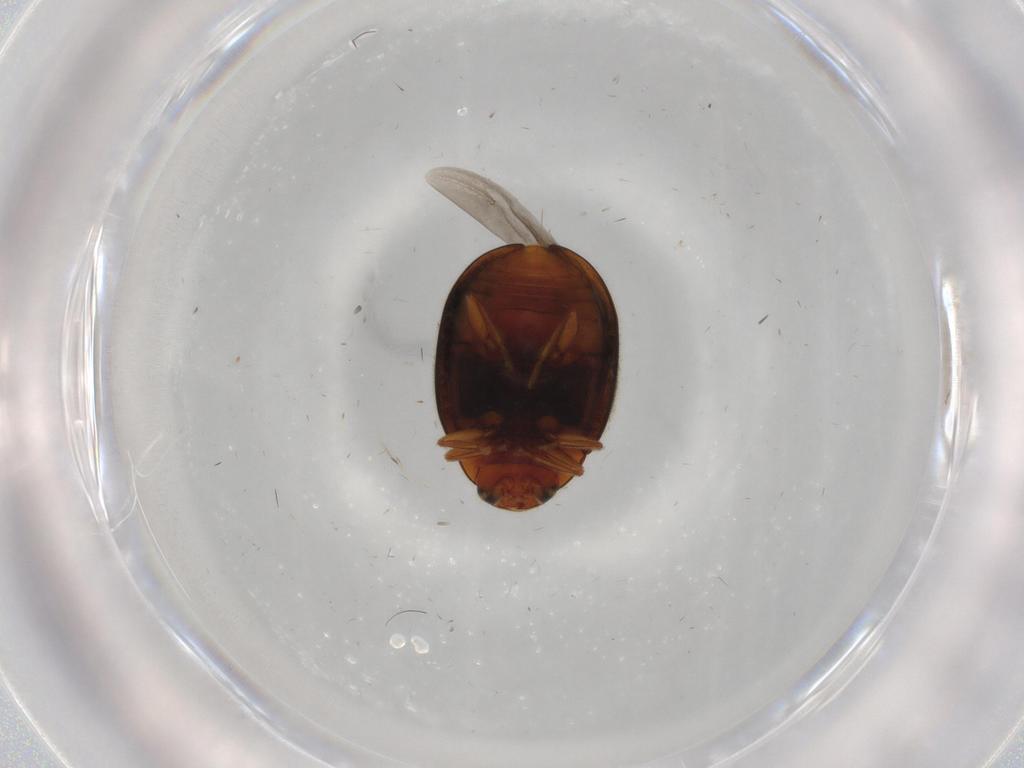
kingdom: Animalia
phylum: Arthropoda
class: Insecta
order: Coleoptera
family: Coccinellidae
